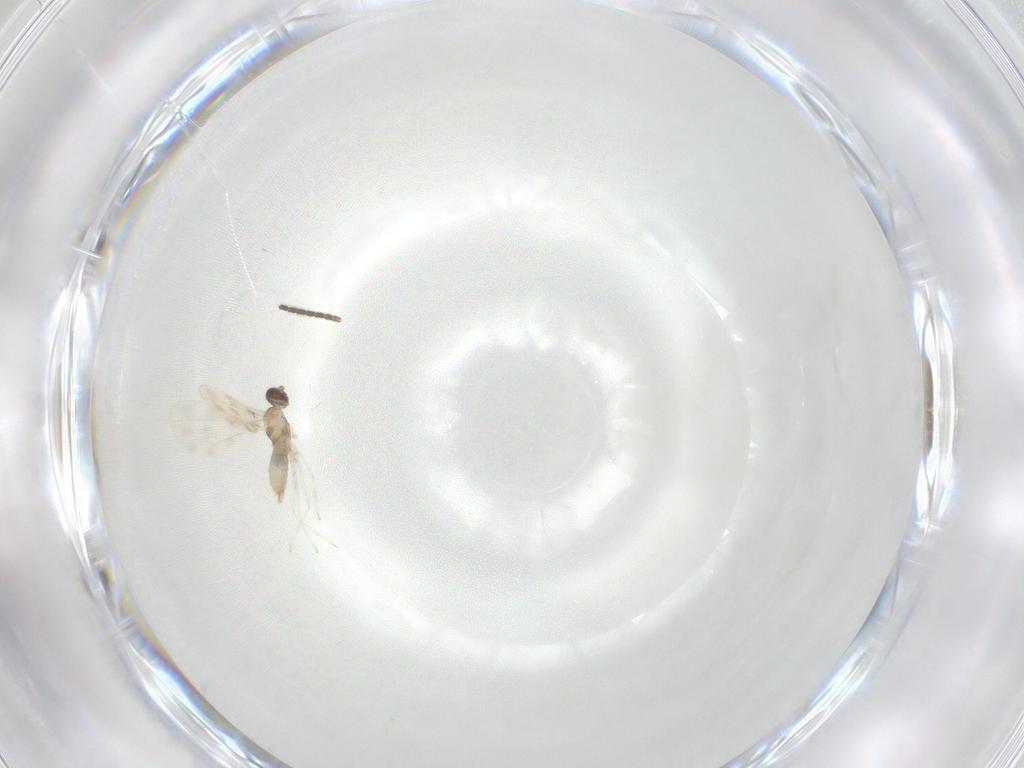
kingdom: Animalia
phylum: Arthropoda
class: Insecta
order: Diptera
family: Cecidomyiidae
